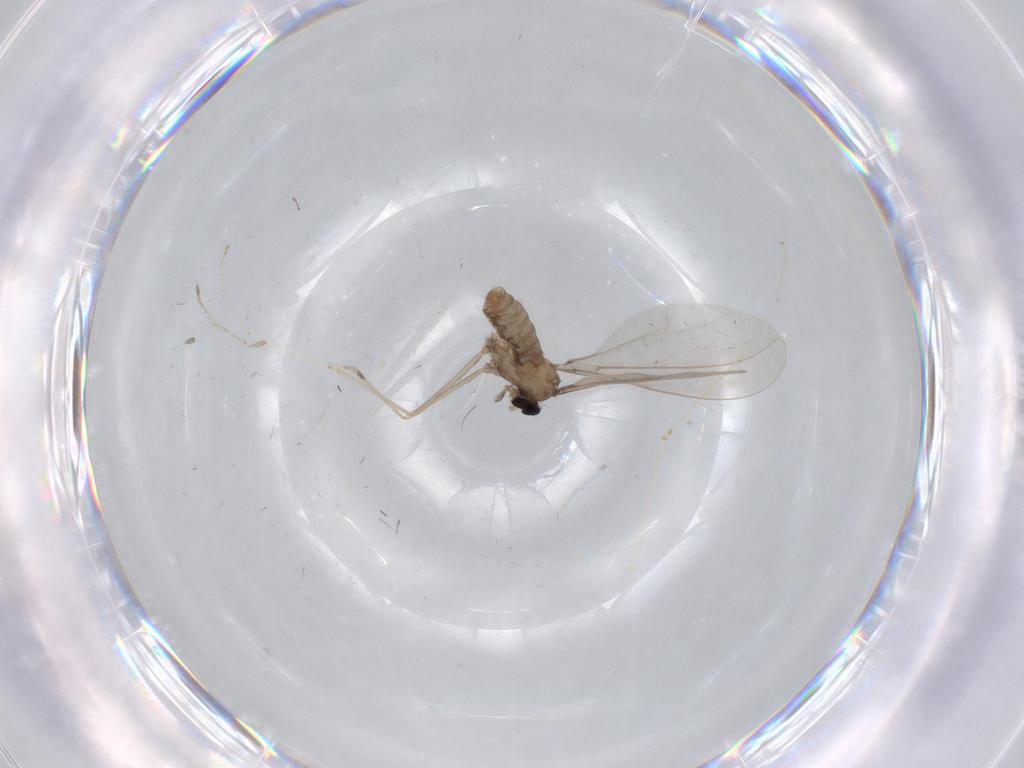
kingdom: Animalia
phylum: Arthropoda
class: Insecta
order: Diptera
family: Cecidomyiidae
